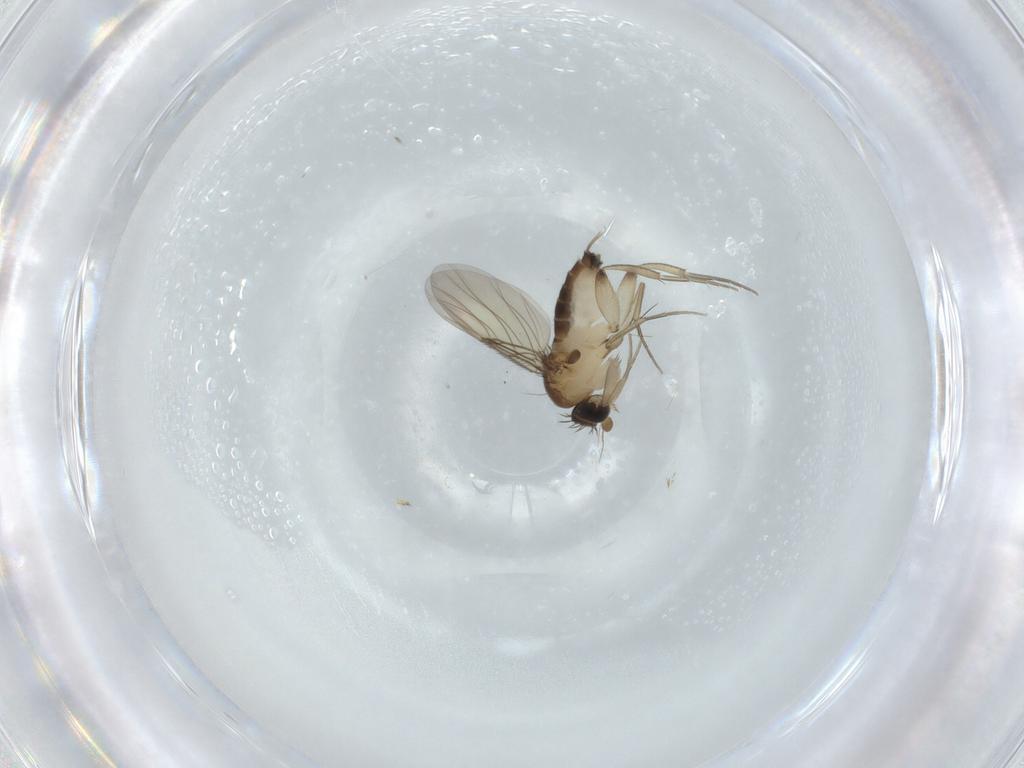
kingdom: Animalia
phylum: Arthropoda
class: Insecta
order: Diptera
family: Phoridae
